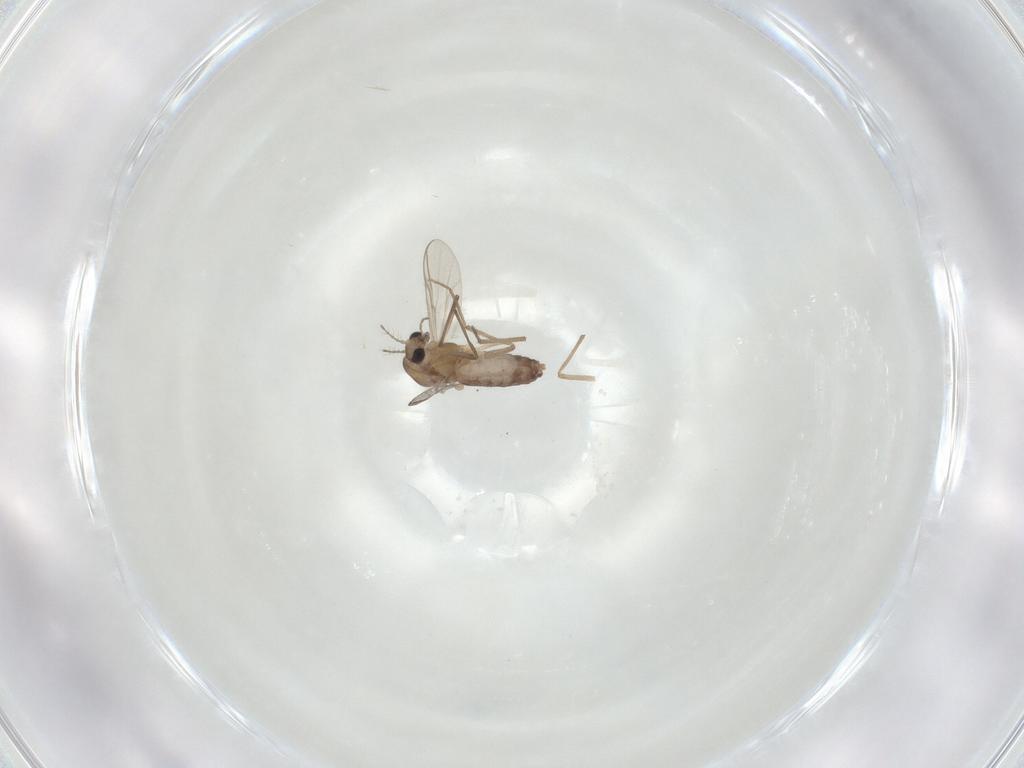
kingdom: Animalia
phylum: Arthropoda
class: Insecta
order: Diptera
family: Chironomidae
